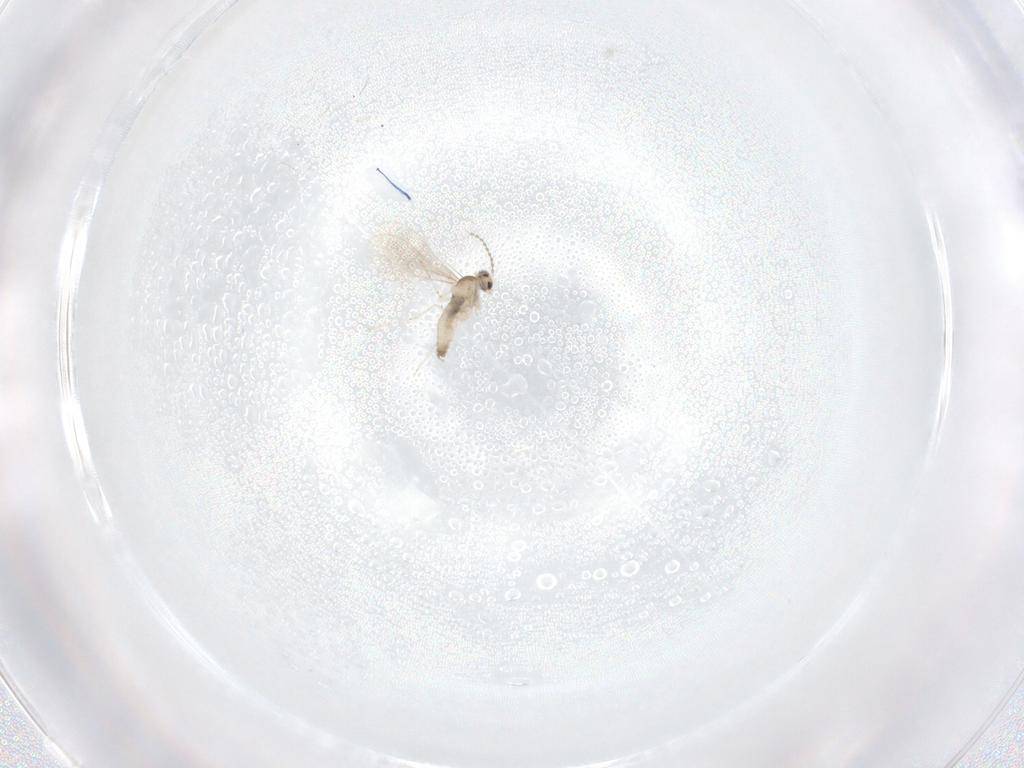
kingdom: Animalia
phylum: Arthropoda
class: Insecta
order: Diptera
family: Cecidomyiidae
